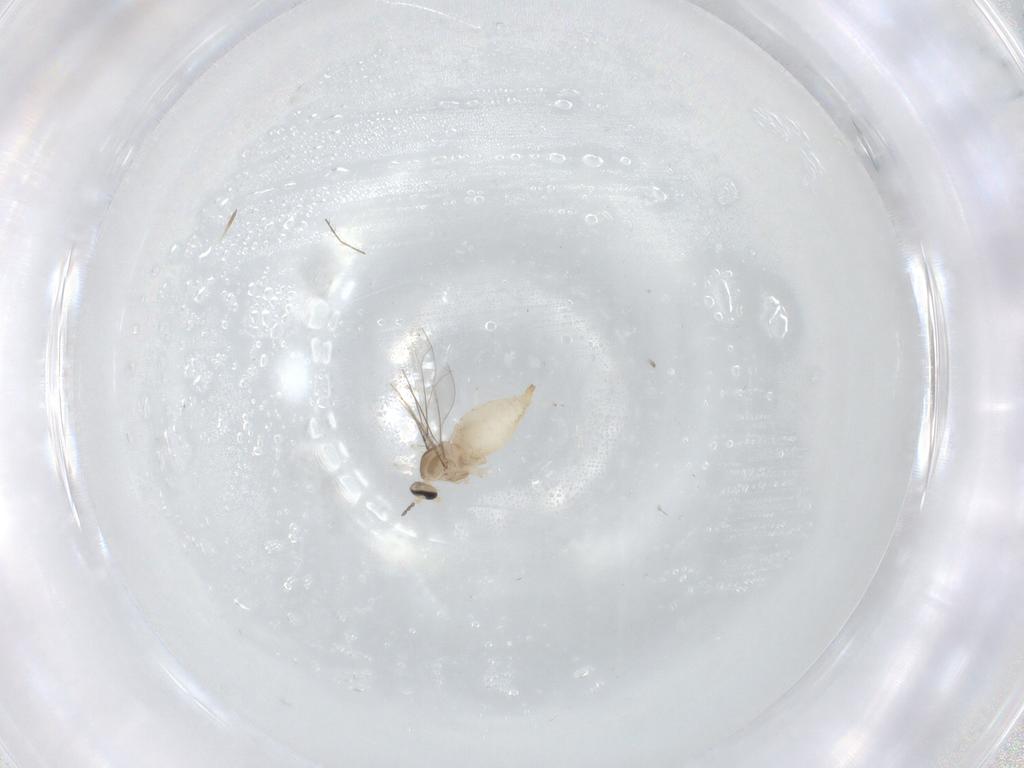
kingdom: Animalia
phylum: Arthropoda
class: Insecta
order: Diptera
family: Cecidomyiidae
